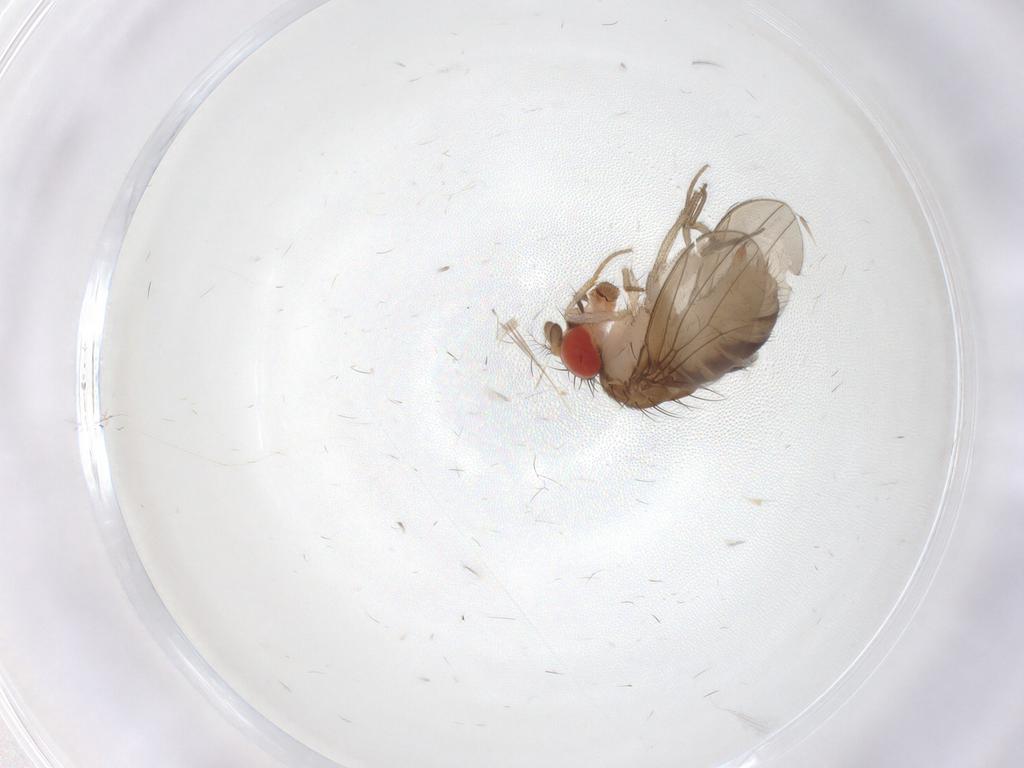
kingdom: Animalia
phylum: Arthropoda
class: Insecta
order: Diptera
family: Drosophilidae
